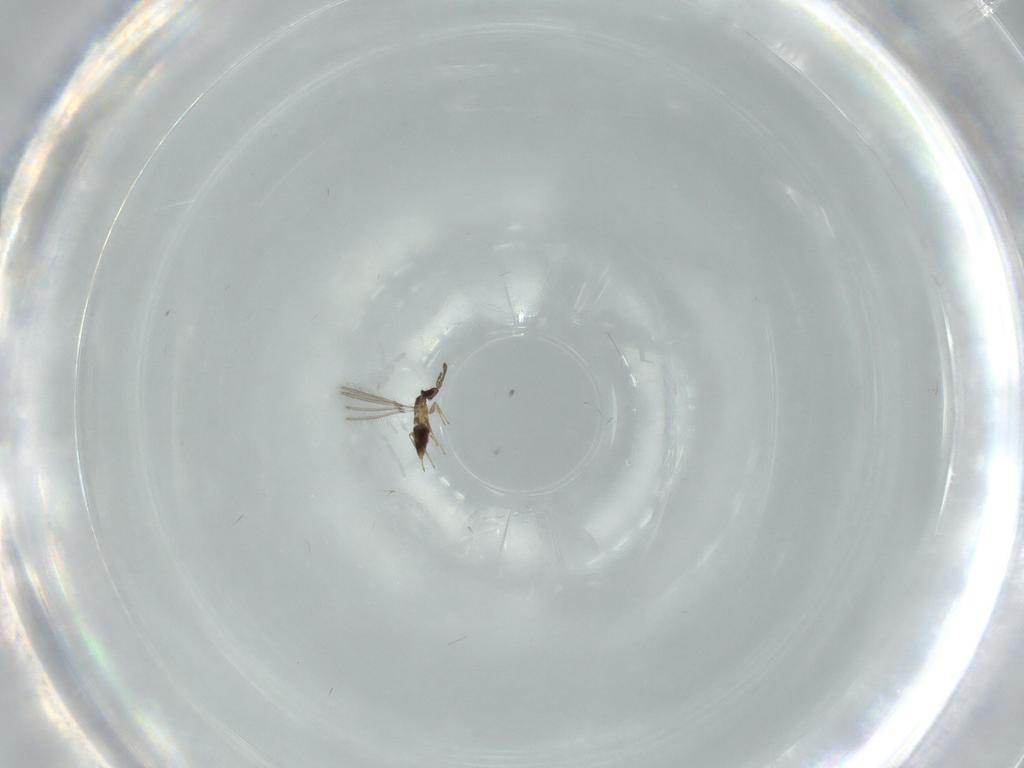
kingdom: Animalia
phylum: Arthropoda
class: Insecta
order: Hymenoptera
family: Mymaridae
